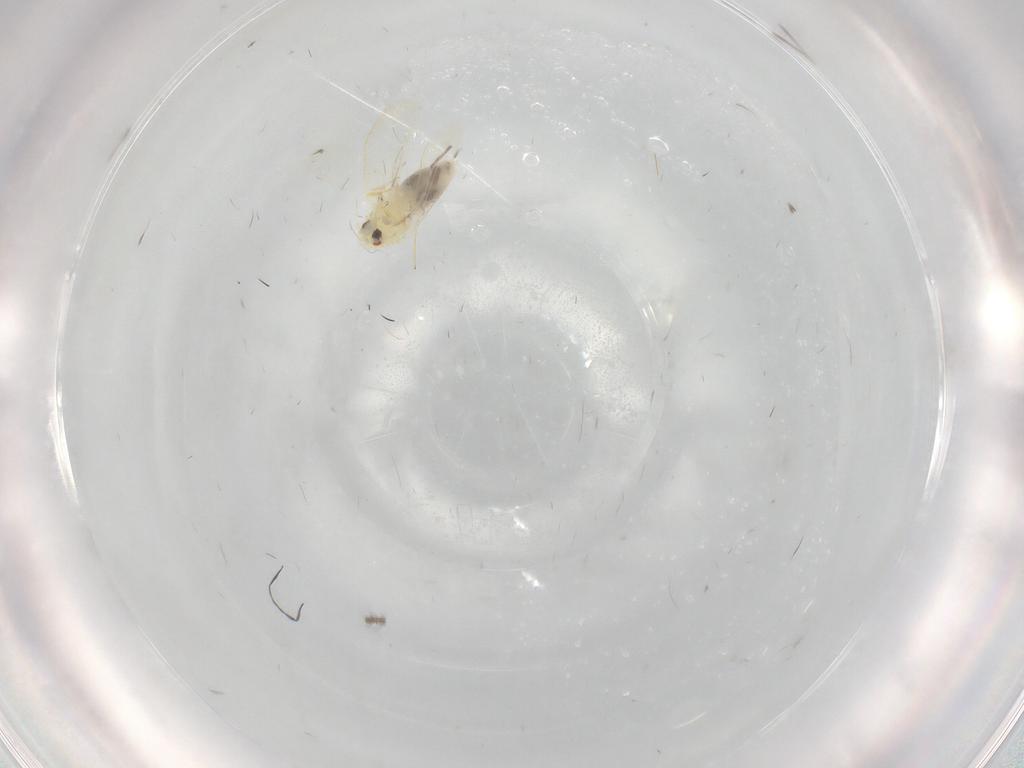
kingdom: Animalia
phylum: Arthropoda
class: Insecta
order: Hemiptera
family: Aleyrodidae
